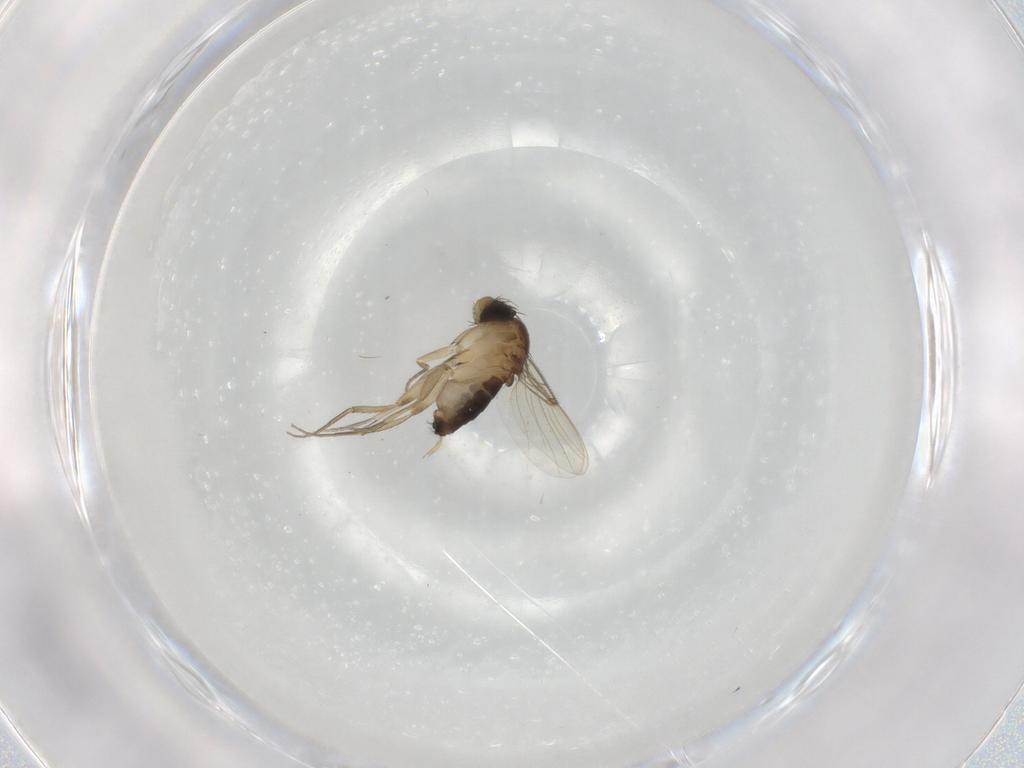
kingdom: Animalia
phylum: Arthropoda
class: Insecta
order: Diptera
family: Phoridae
